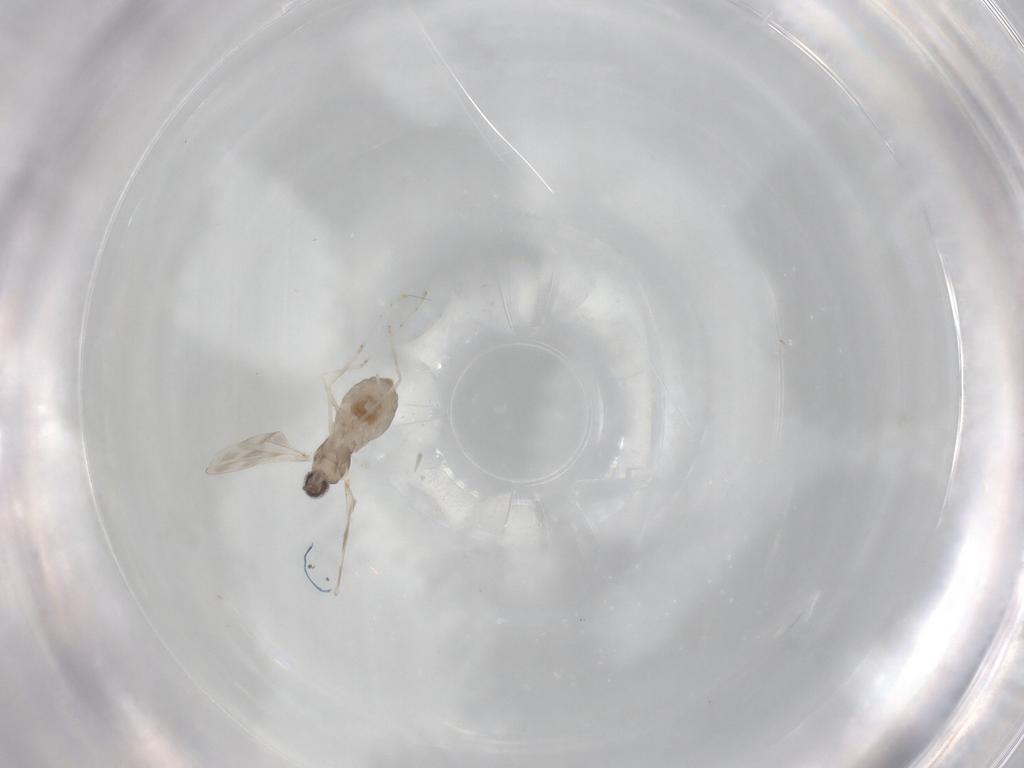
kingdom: Animalia
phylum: Arthropoda
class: Insecta
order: Diptera
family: Cecidomyiidae
